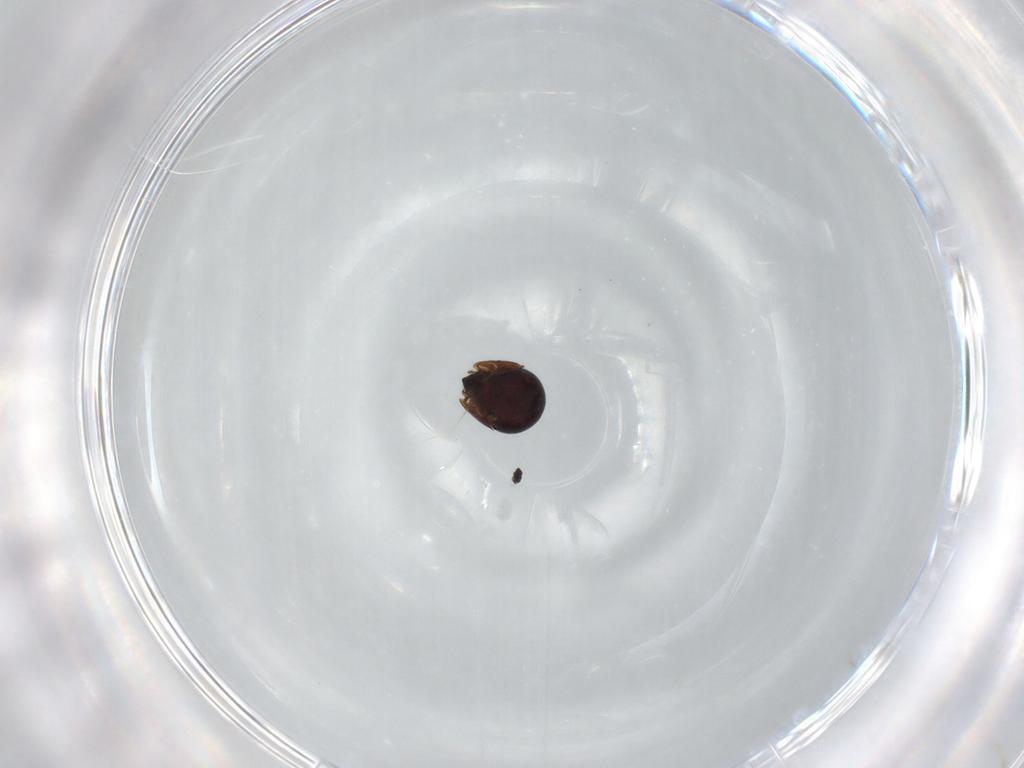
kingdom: Animalia
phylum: Arthropoda
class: Arachnida
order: Sarcoptiformes
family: Ceratozetidae
